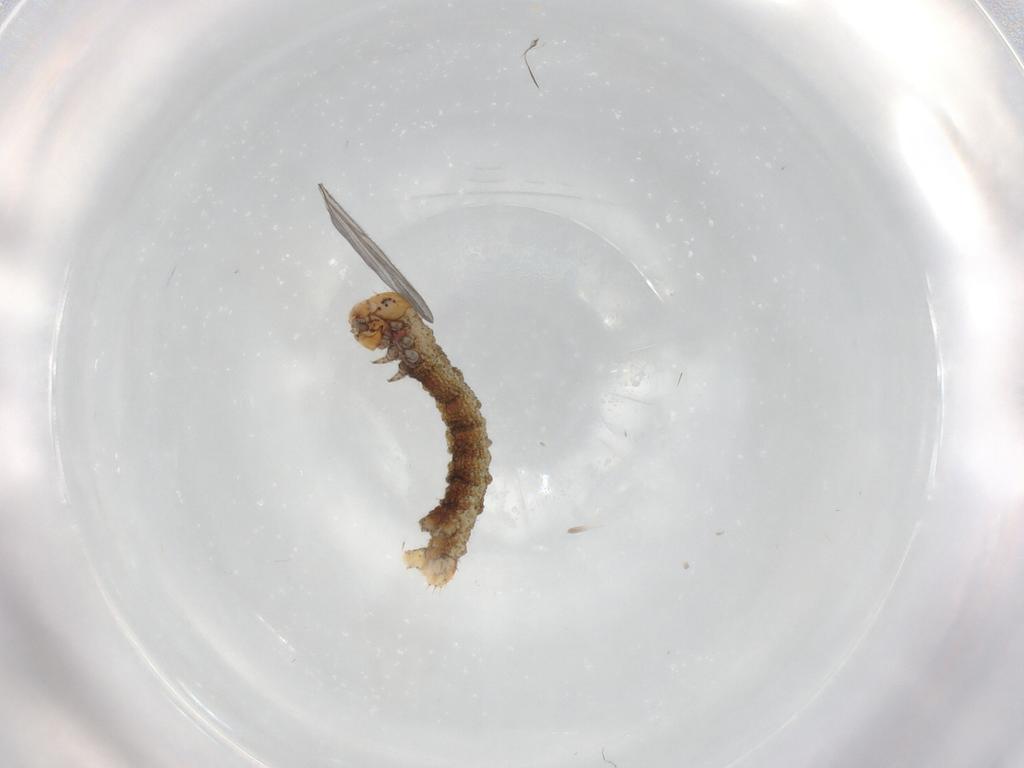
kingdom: Animalia
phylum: Arthropoda
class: Insecta
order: Lepidoptera
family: Geometridae
